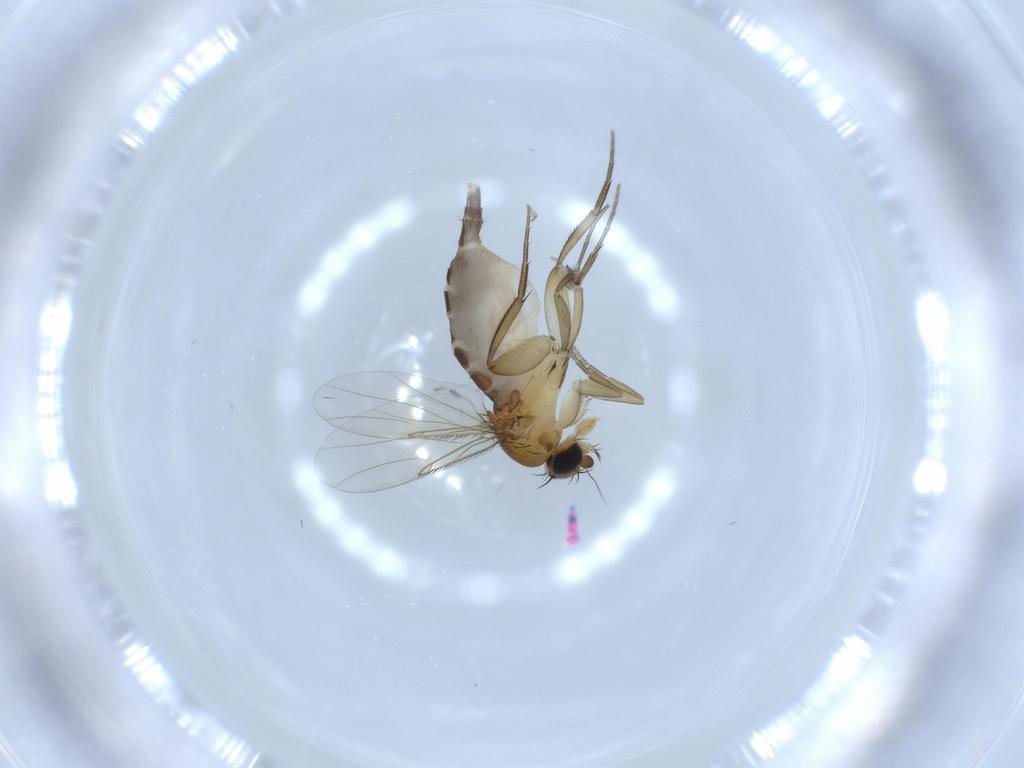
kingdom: Animalia
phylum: Arthropoda
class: Insecta
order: Diptera
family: Phoridae
